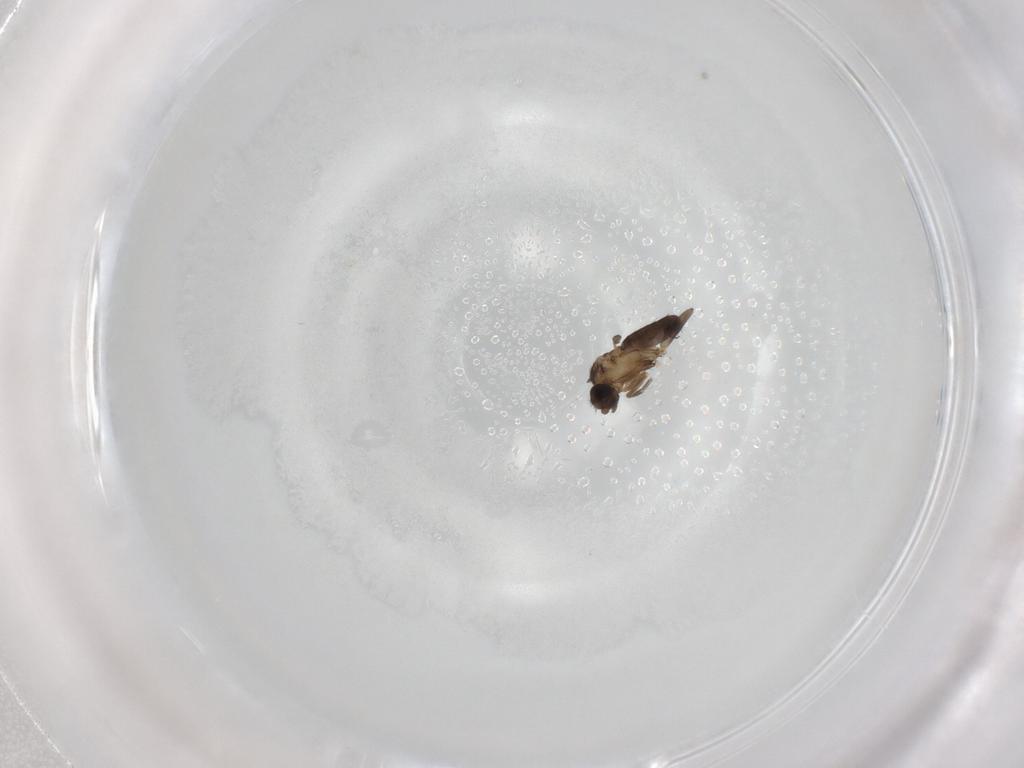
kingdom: Animalia
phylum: Arthropoda
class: Insecta
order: Diptera
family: Phoridae
